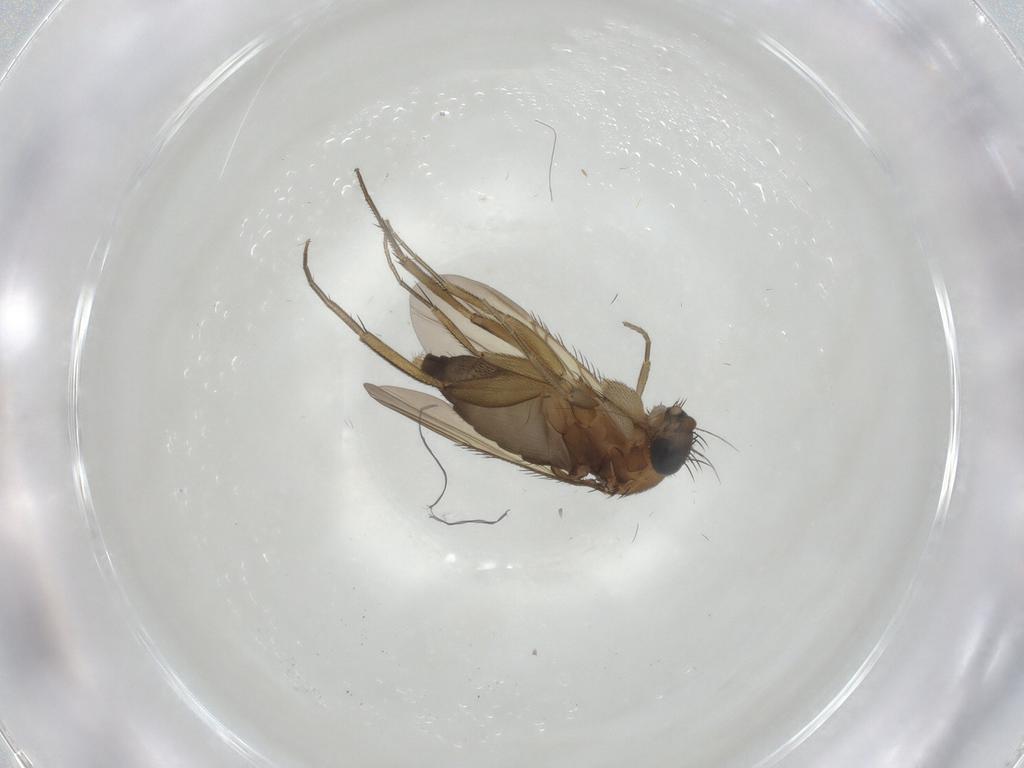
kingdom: Animalia
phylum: Arthropoda
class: Insecta
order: Diptera
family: Phoridae
